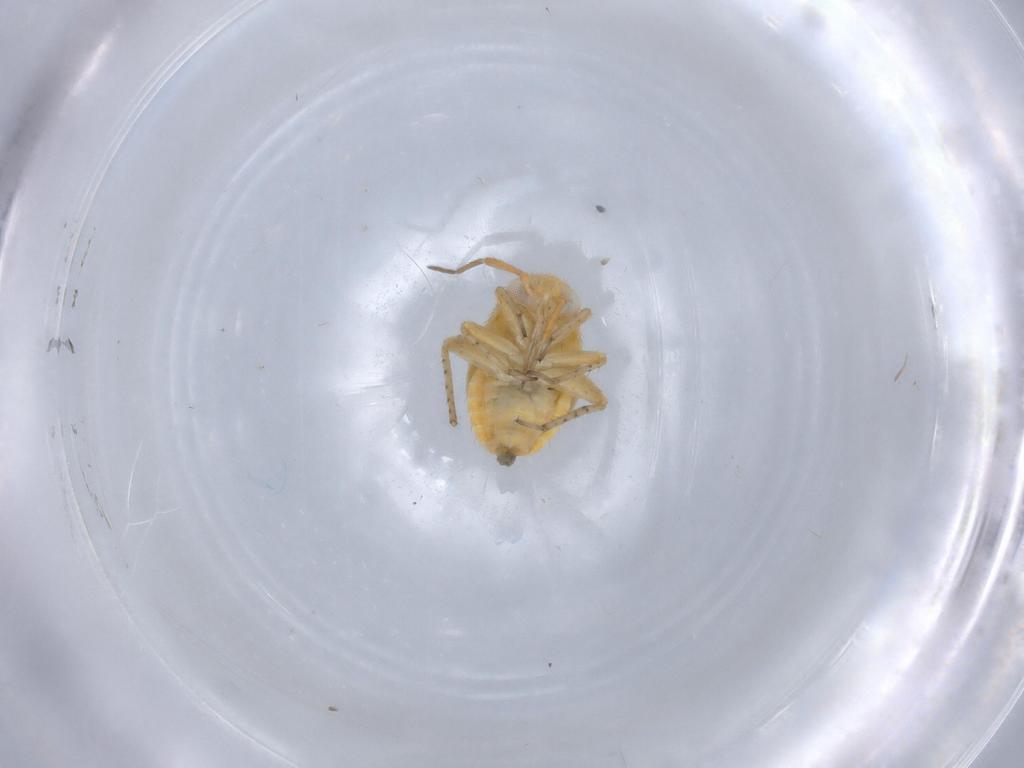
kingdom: Animalia
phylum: Arthropoda
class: Insecta
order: Hemiptera
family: Miridae
